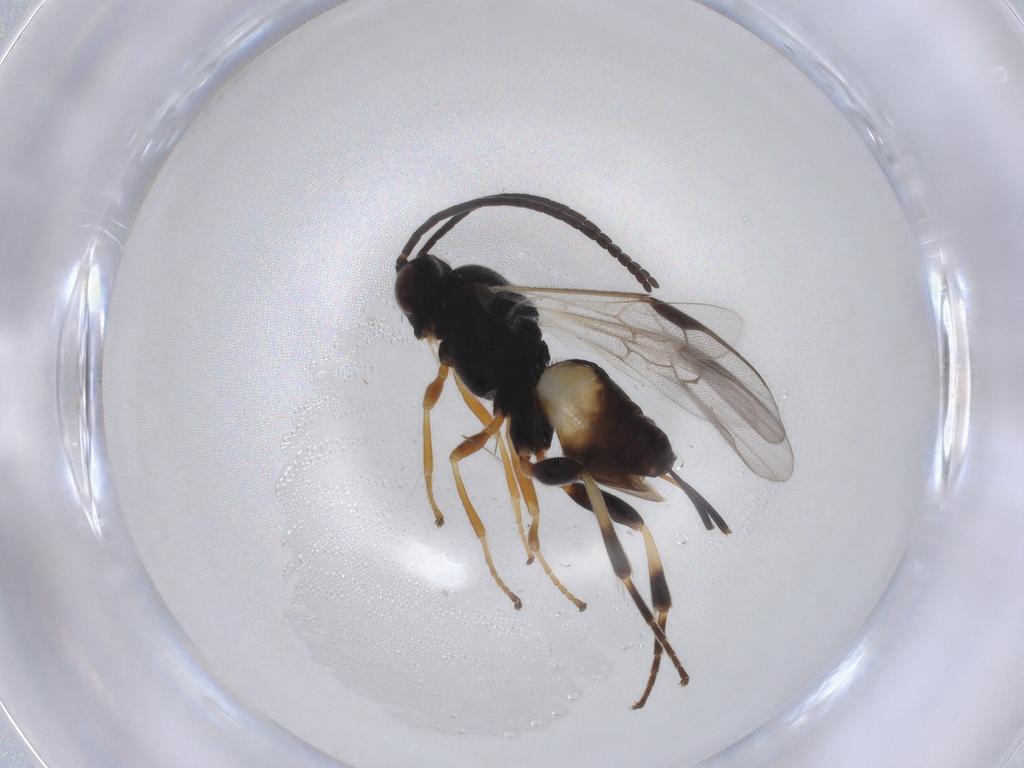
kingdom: Animalia
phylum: Arthropoda
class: Insecta
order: Hymenoptera
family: Braconidae
